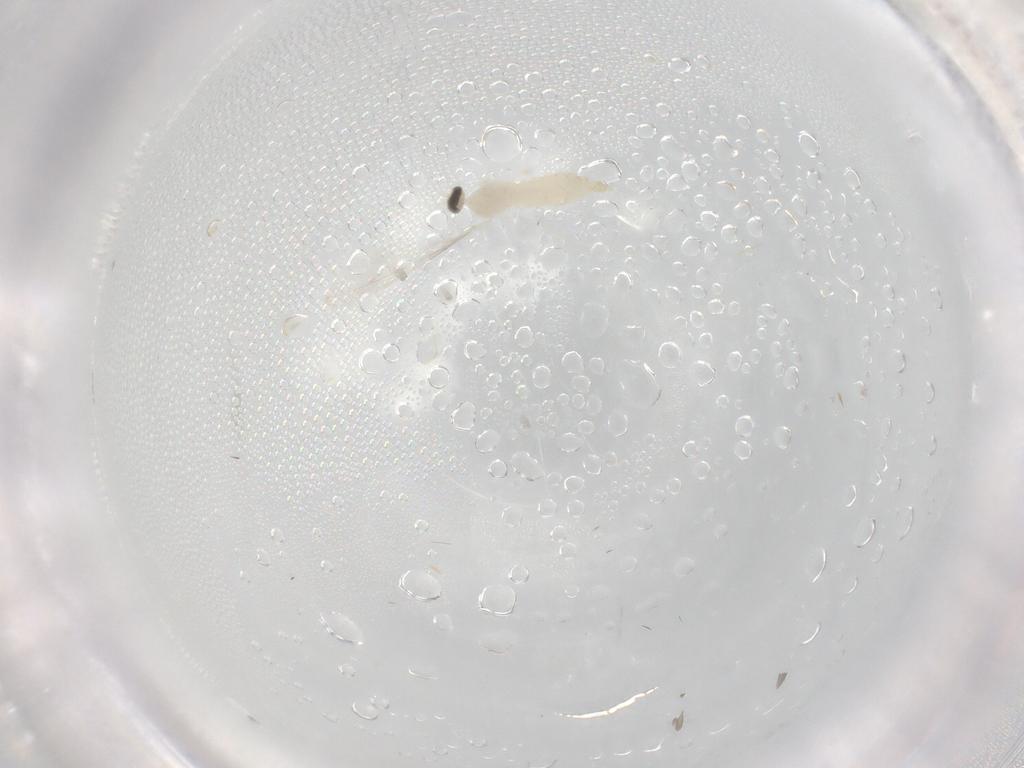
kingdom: Animalia
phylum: Arthropoda
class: Insecta
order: Diptera
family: Cecidomyiidae
